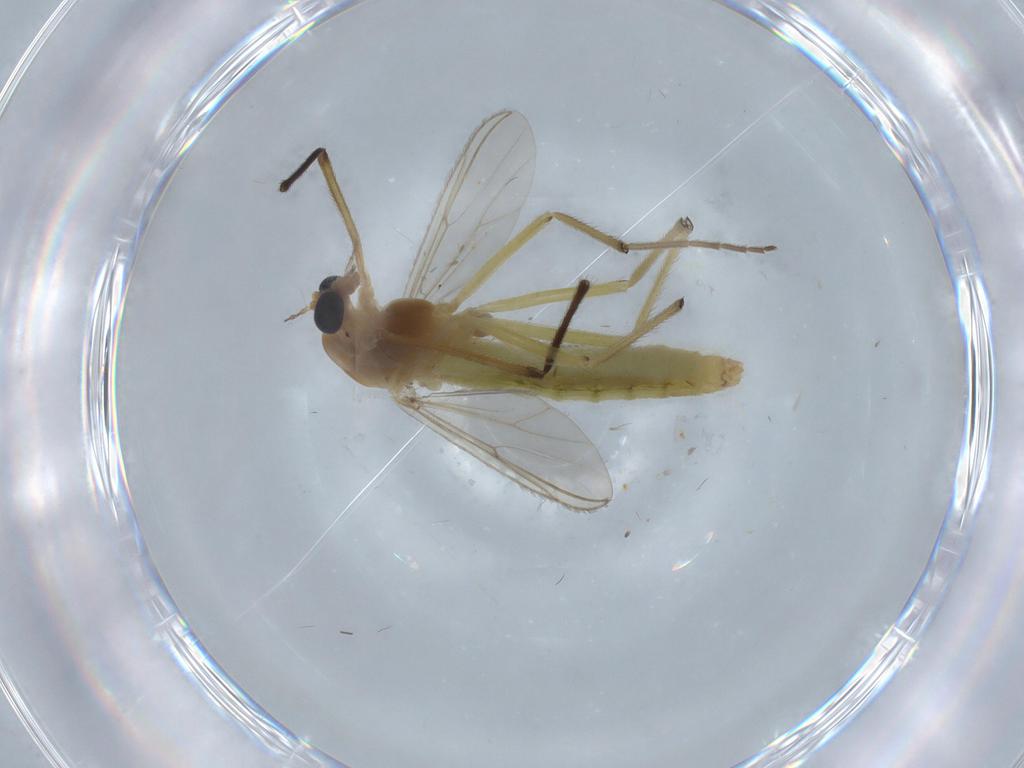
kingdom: Animalia
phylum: Arthropoda
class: Insecta
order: Diptera
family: Chironomidae
